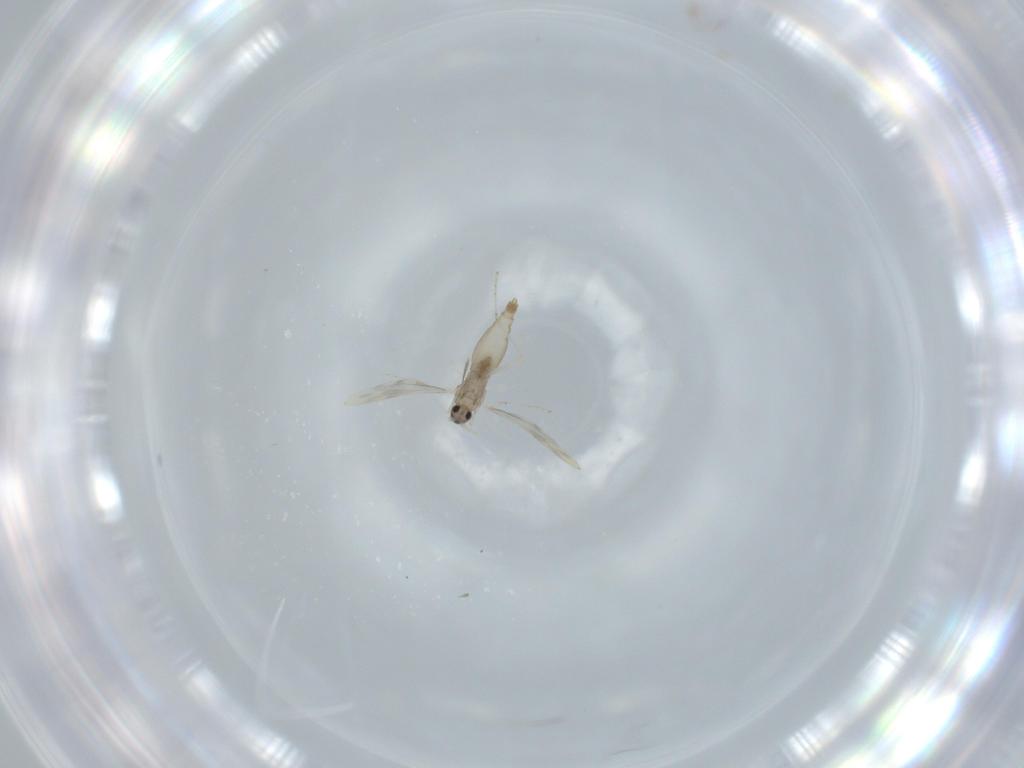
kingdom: Animalia
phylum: Arthropoda
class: Insecta
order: Diptera
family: Cecidomyiidae
